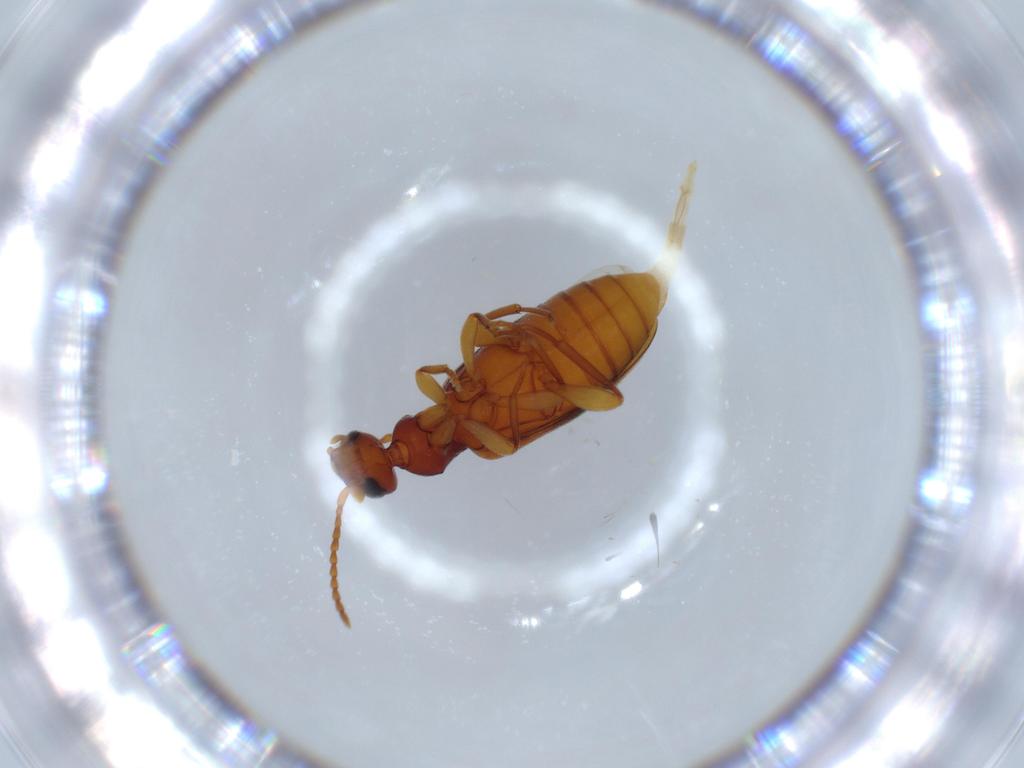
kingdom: Animalia
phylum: Arthropoda
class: Insecta
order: Coleoptera
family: Anthicidae
